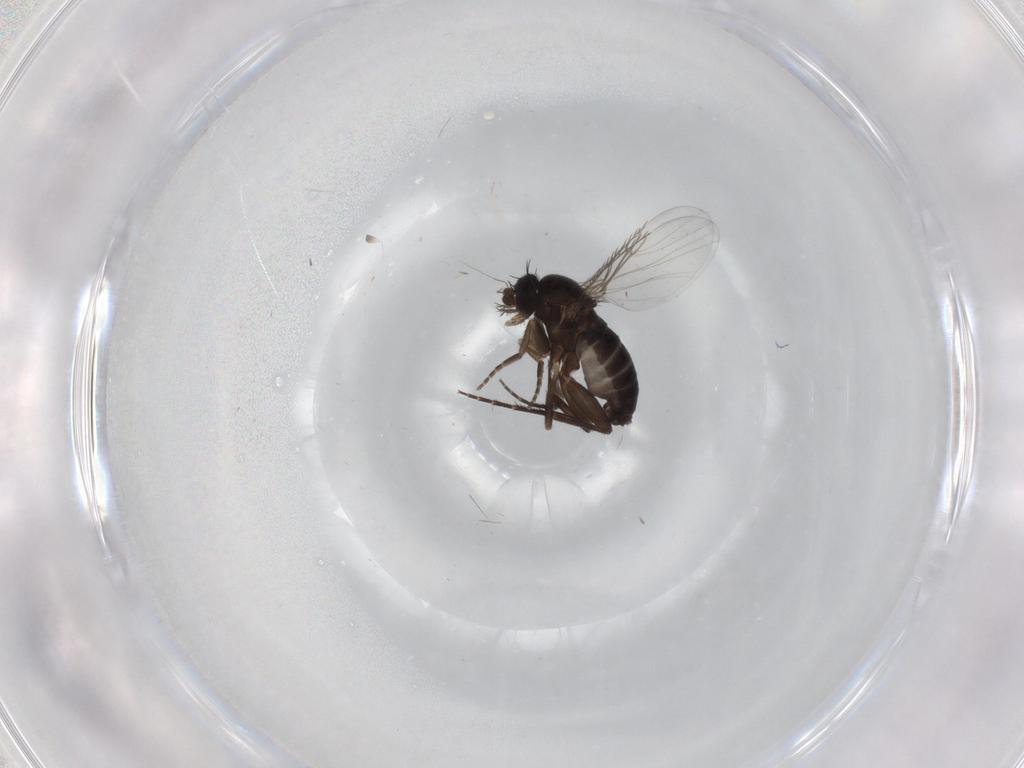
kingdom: Animalia
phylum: Arthropoda
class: Insecta
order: Diptera
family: Phoridae
